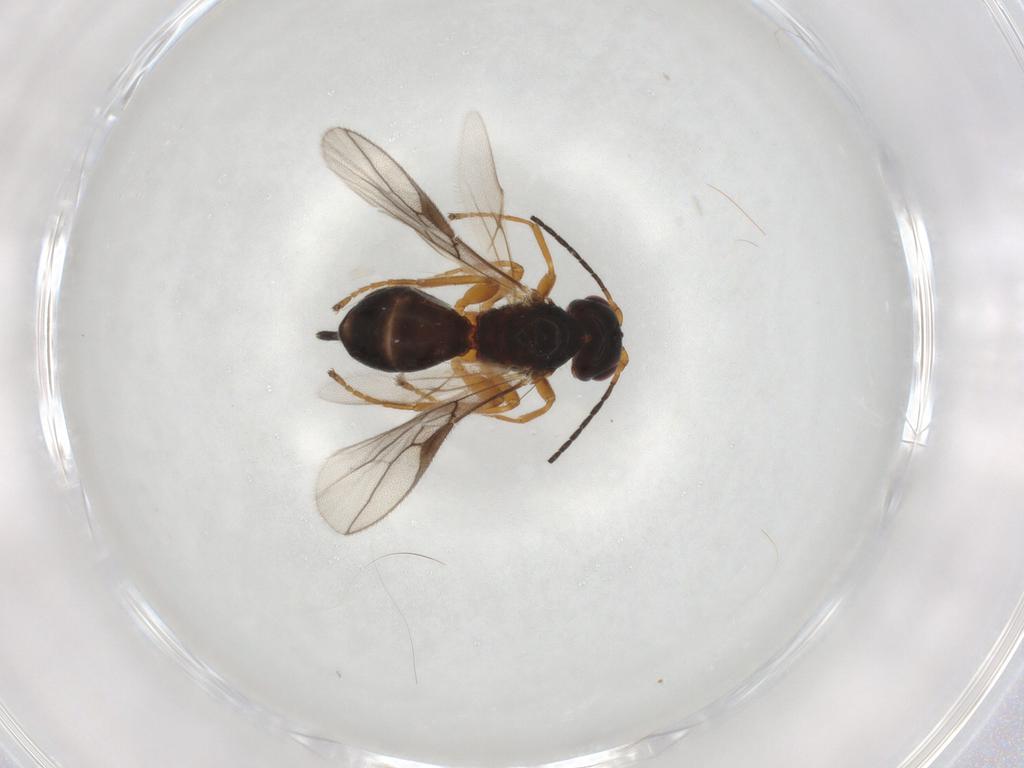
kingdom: Animalia
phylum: Arthropoda
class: Insecta
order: Hymenoptera
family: Braconidae
